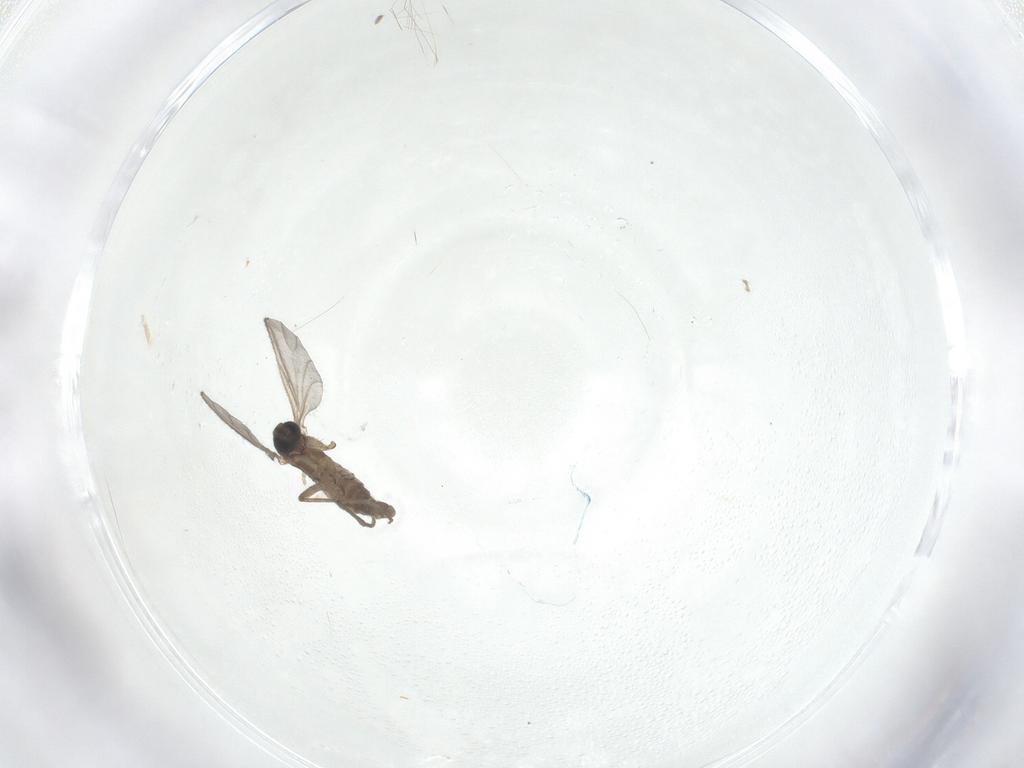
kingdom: Animalia
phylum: Arthropoda
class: Insecta
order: Diptera
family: Sciaridae
